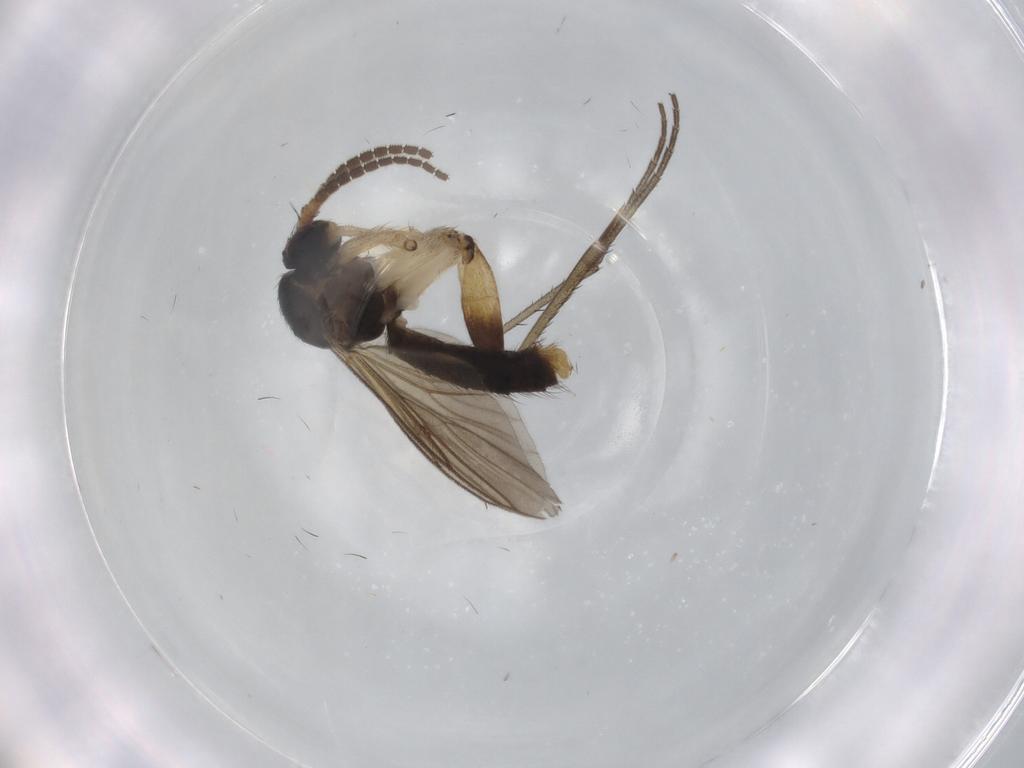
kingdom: Animalia
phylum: Arthropoda
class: Insecta
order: Diptera
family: Mycetophilidae
